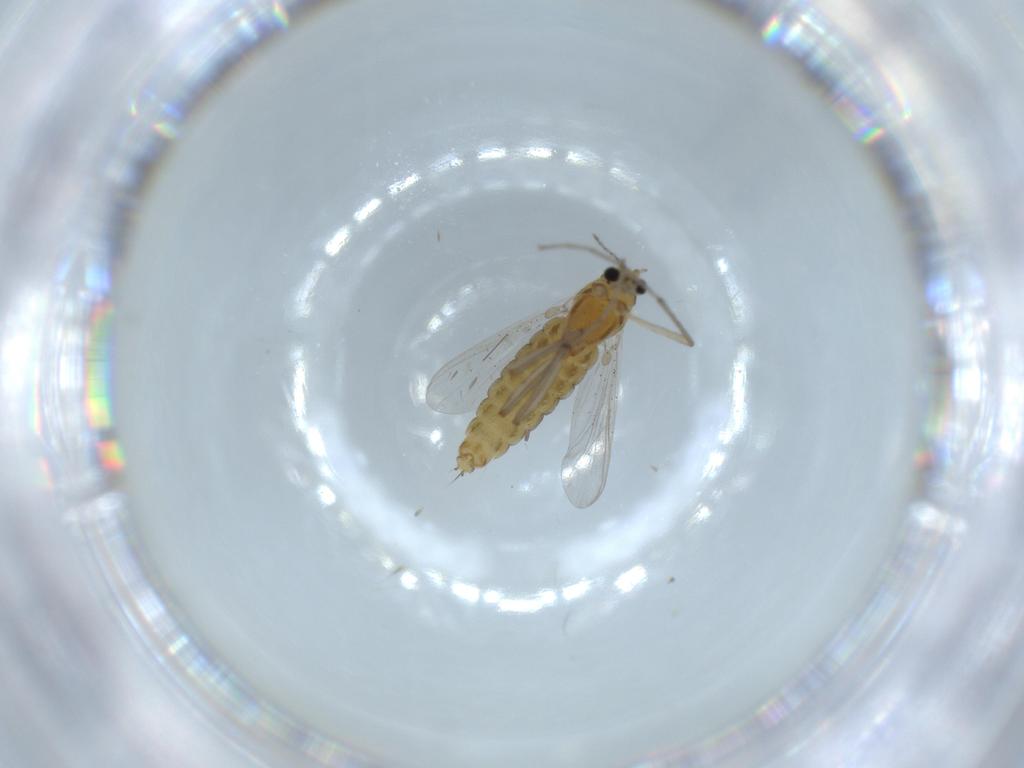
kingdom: Animalia
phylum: Arthropoda
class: Insecta
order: Diptera
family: Chironomidae
